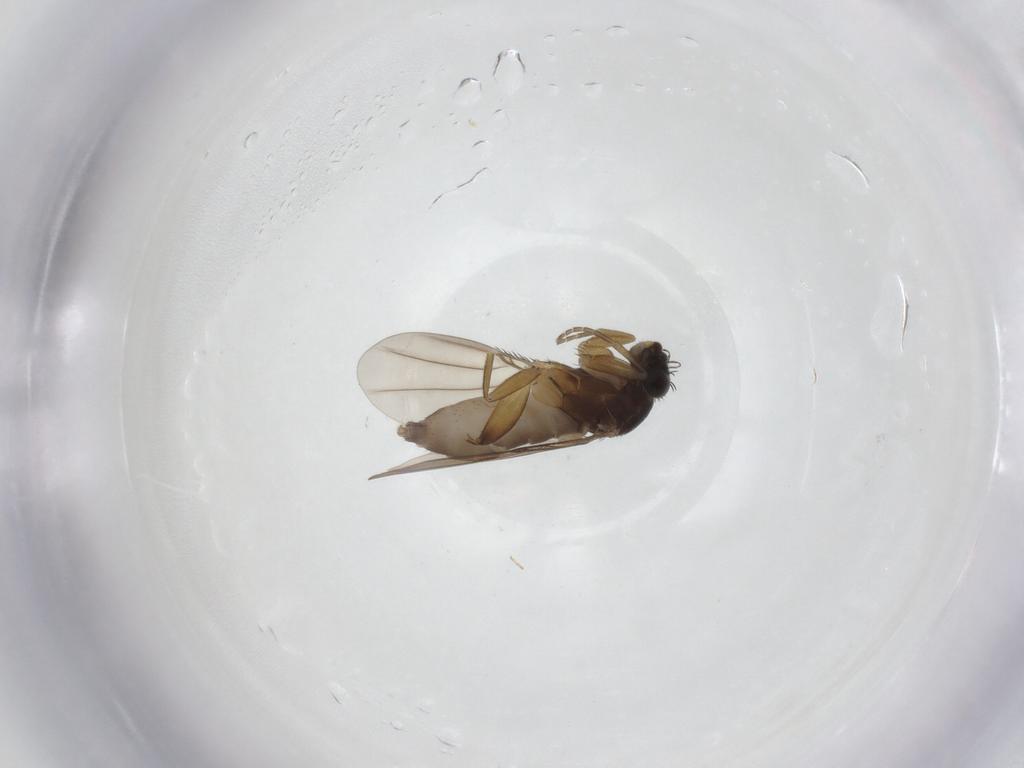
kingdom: Animalia
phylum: Arthropoda
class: Insecta
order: Diptera
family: Phoridae
